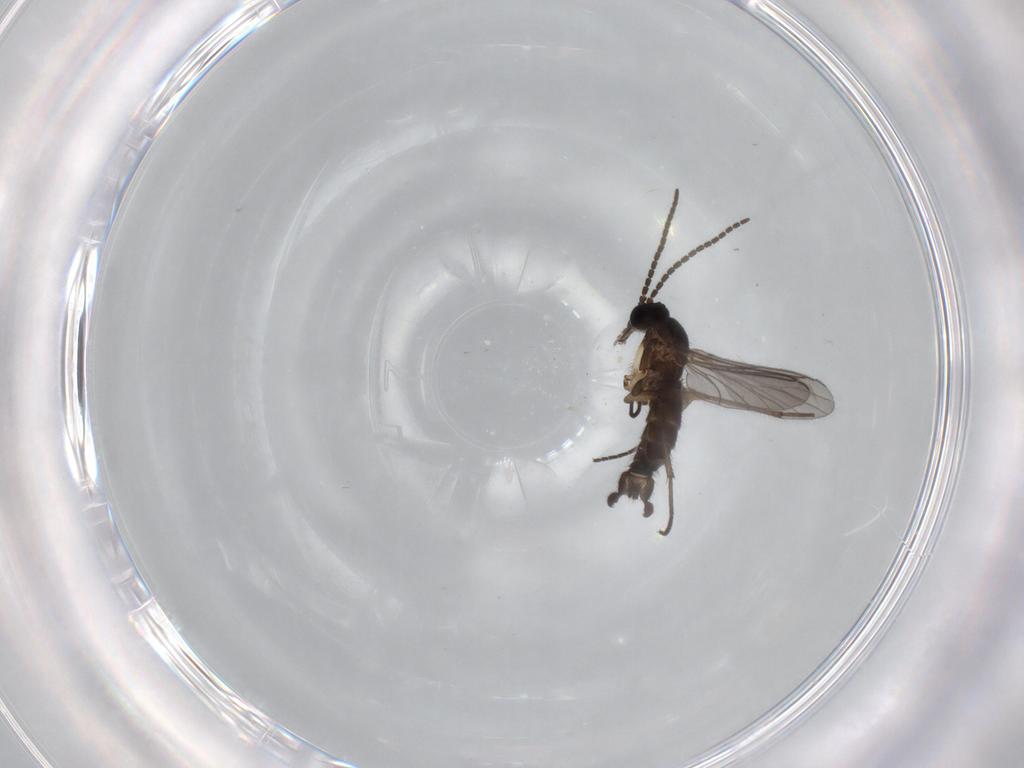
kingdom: Animalia
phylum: Arthropoda
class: Insecta
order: Diptera
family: Sciaridae
